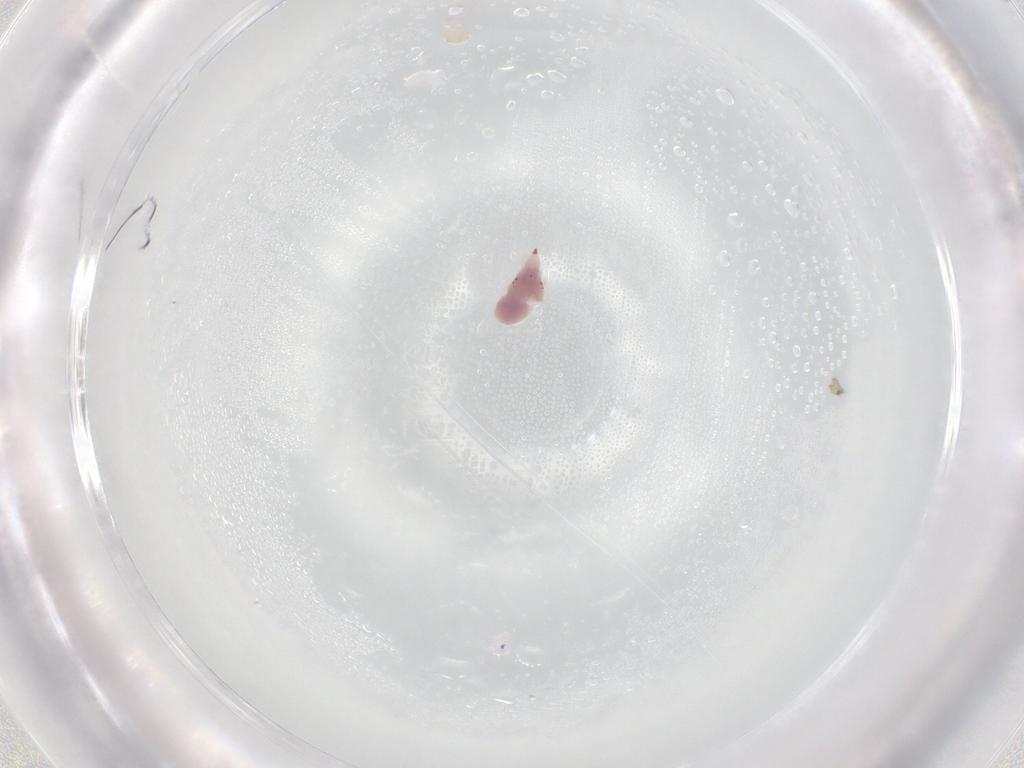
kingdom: Animalia
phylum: Arthropoda
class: Arachnida
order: Trombidiformes
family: Bdellidae
